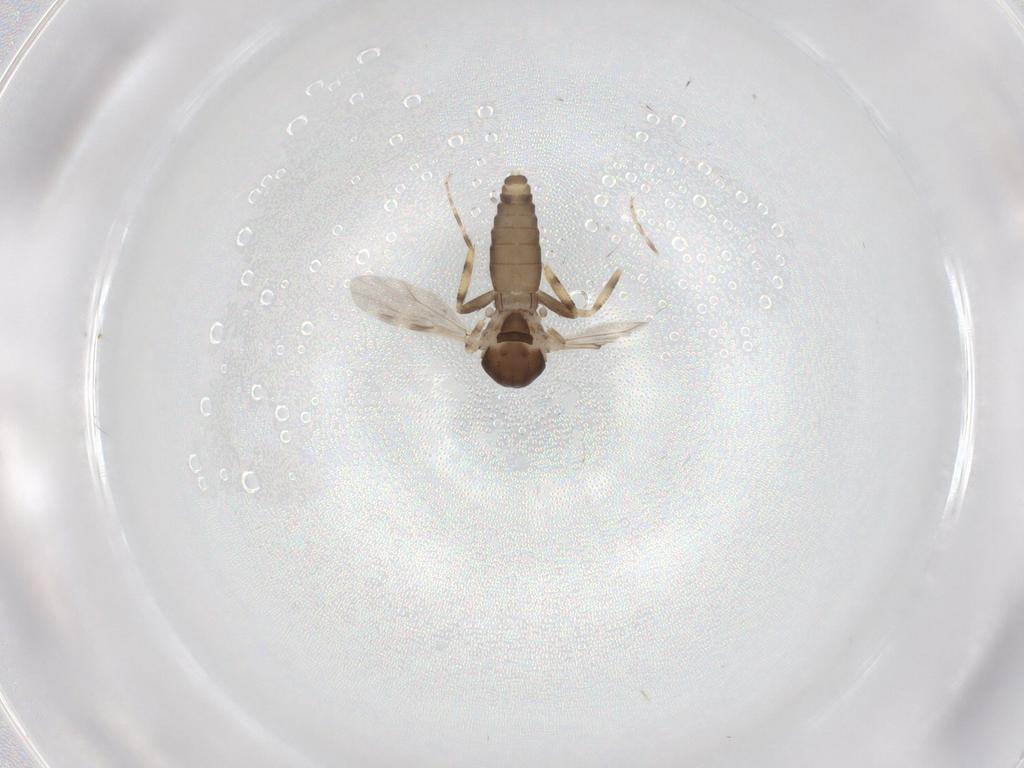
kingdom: Animalia
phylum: Arthropoda
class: Insecta
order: Diptera
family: Ceratopogonidae
